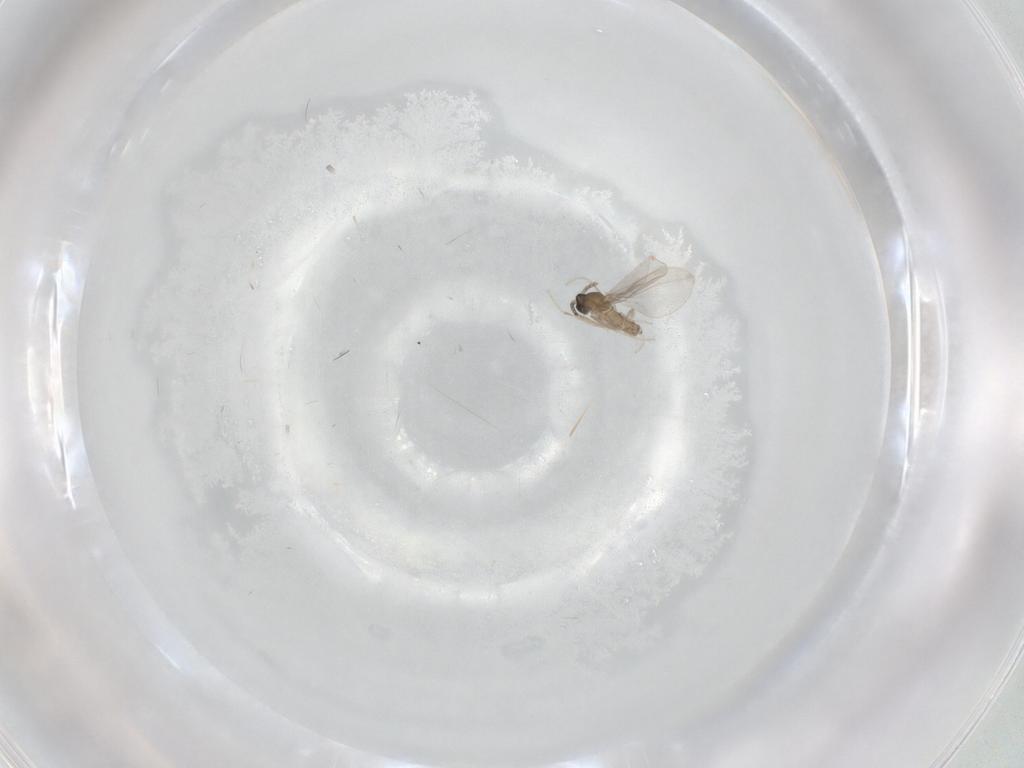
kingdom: Animalia
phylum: Arthropoda
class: Insecta
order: Diptera
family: Cecidomyiidae
